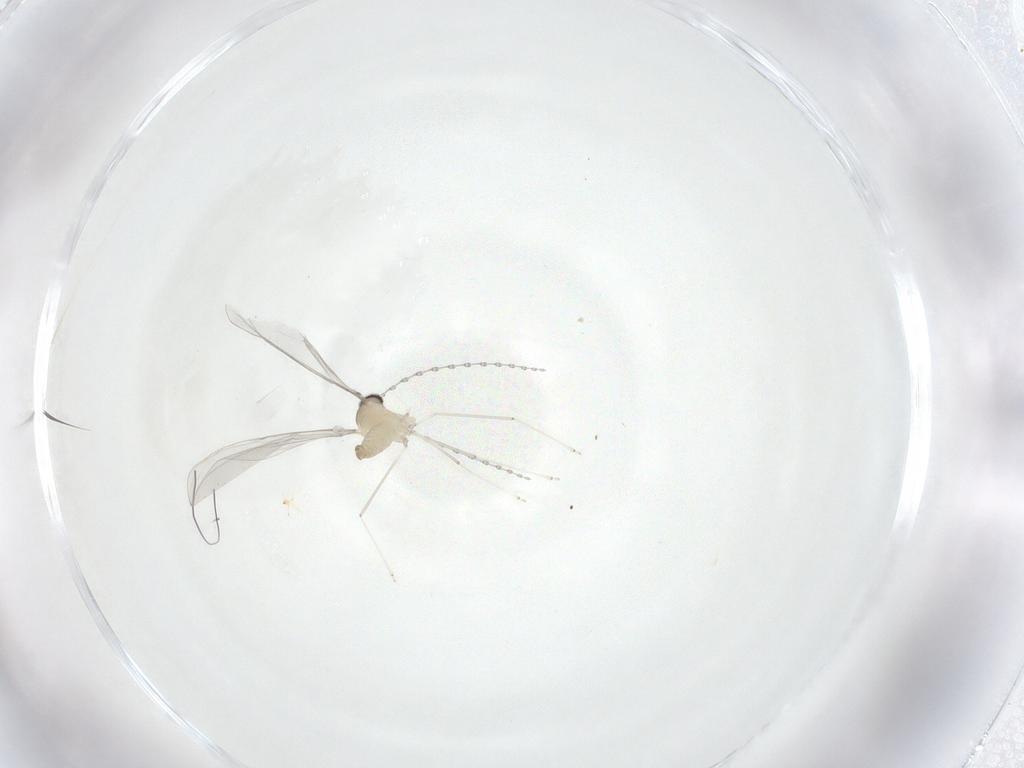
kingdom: Animalia
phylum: Arthropoda
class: Insecta
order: Diptera
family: Cecidomyiidae
